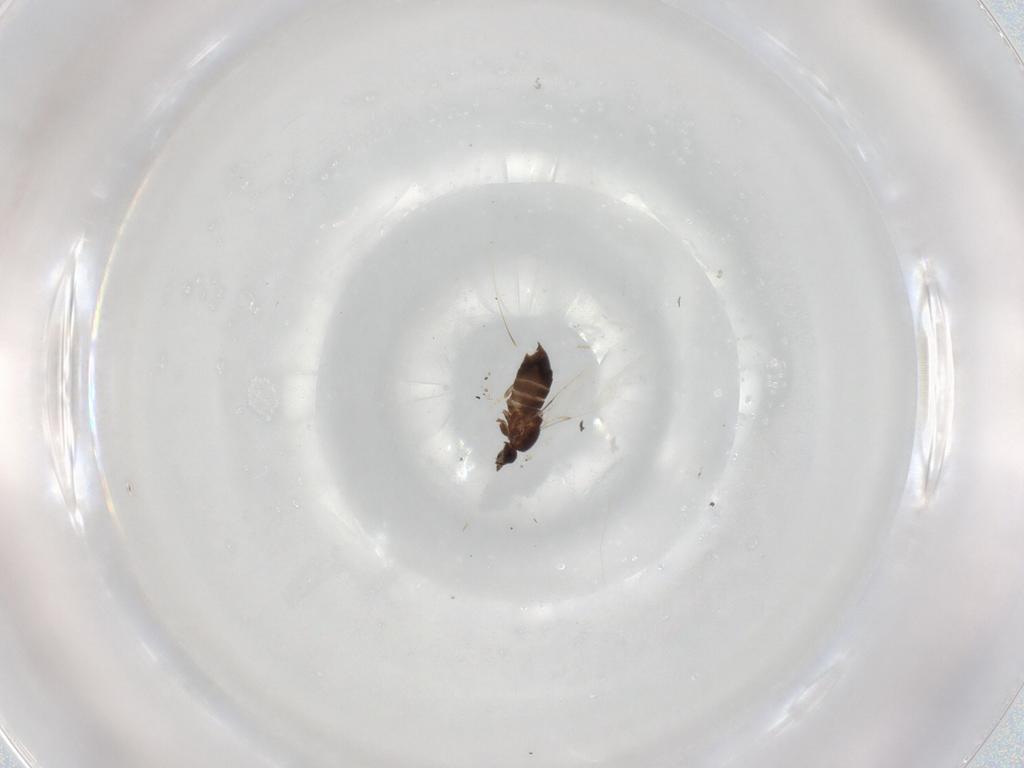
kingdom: Animalia
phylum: Arthropoda
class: Insecta
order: Diptera
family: Scatopsidae
